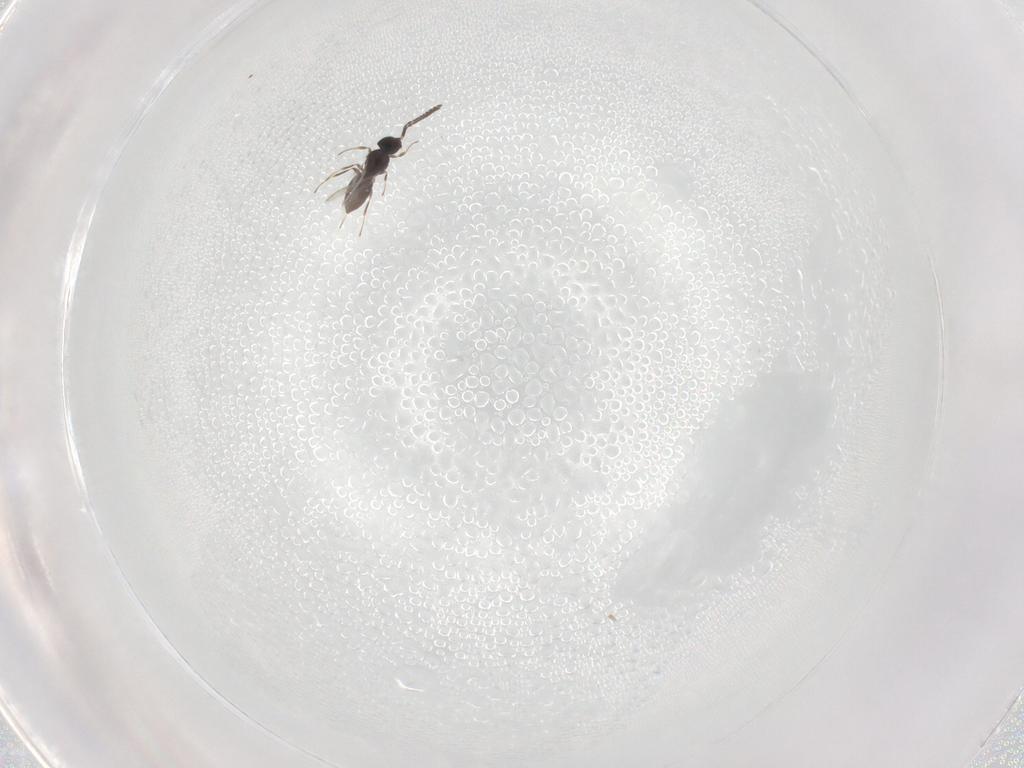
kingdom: Animalia
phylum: Arthropoda
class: Insecta
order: Hymenoptera
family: Scelionidae
